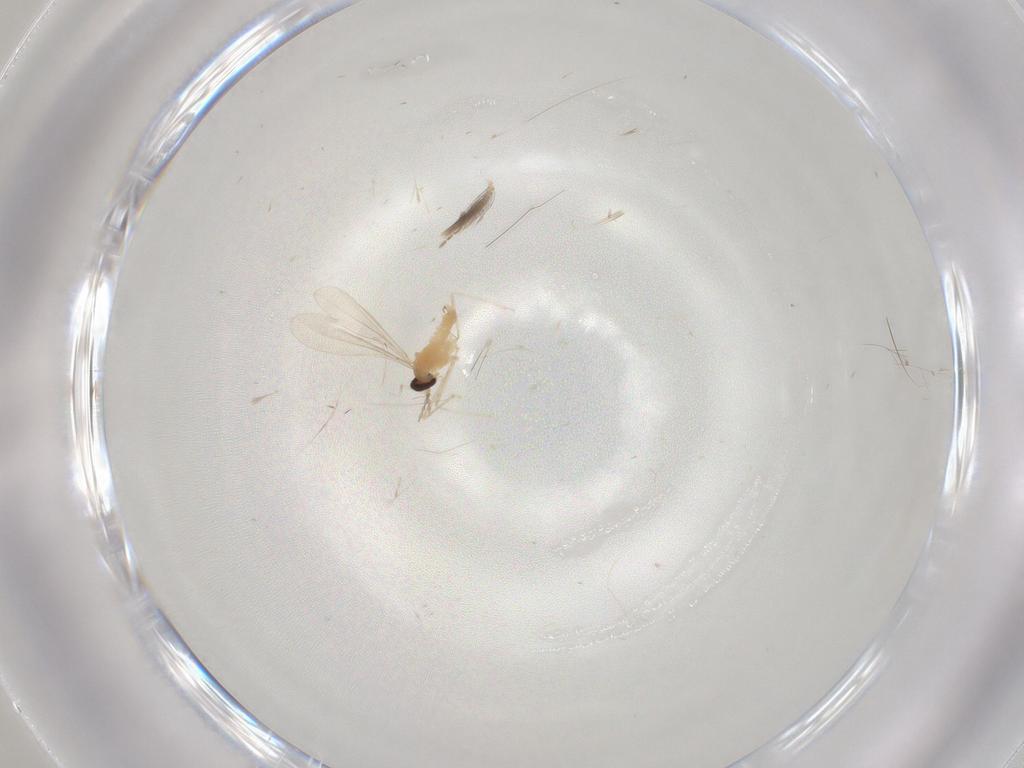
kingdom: Animalia
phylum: Arthropoda
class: Insecta
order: Diptera
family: Cecidomyiidae
